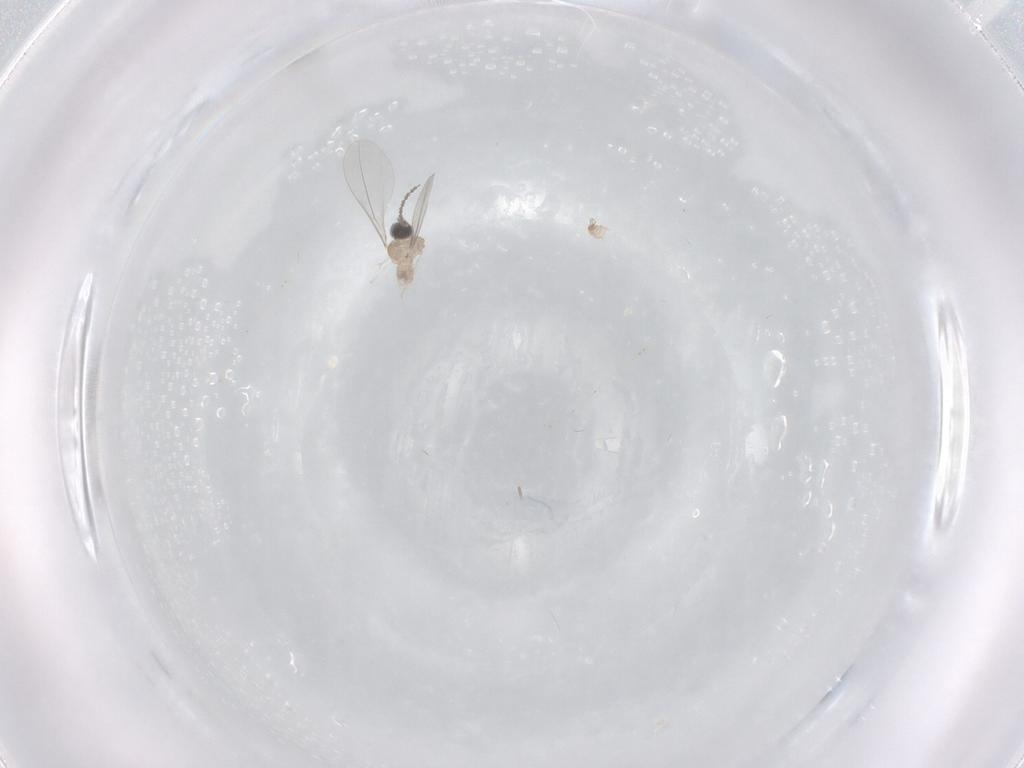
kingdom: Animalia
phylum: Arthropoda
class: Insecta
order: Diptera
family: Cecidomyiidae
